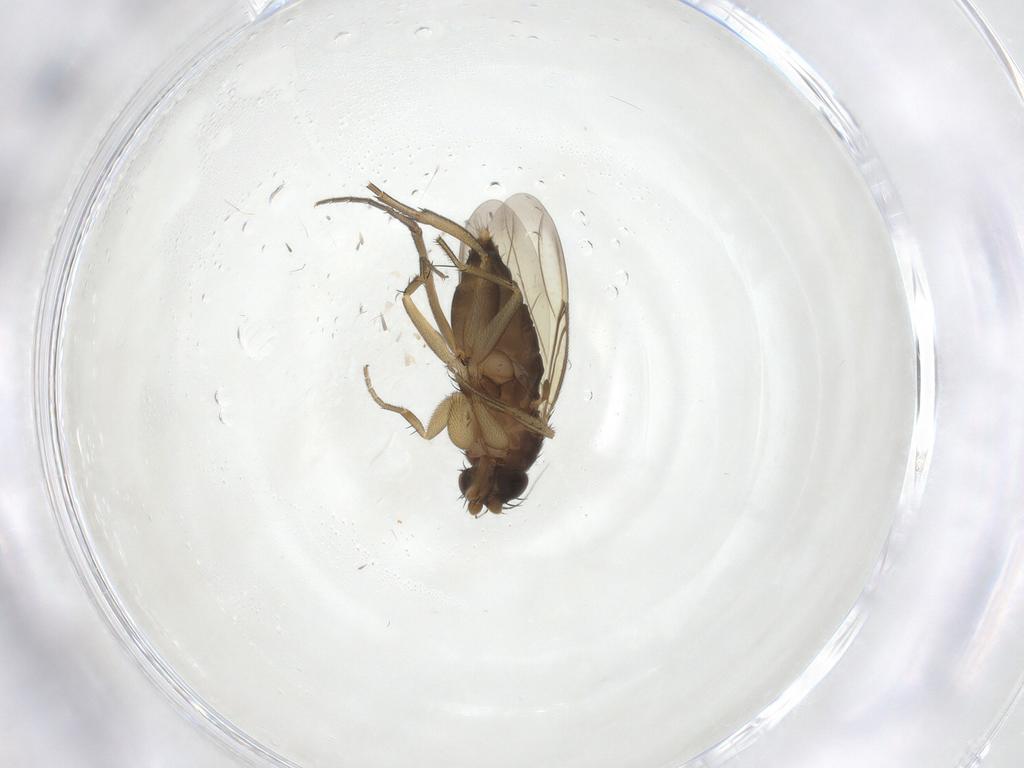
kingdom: Animalia
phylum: Arthropoda
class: Insecta
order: Diptera
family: Phoridae
